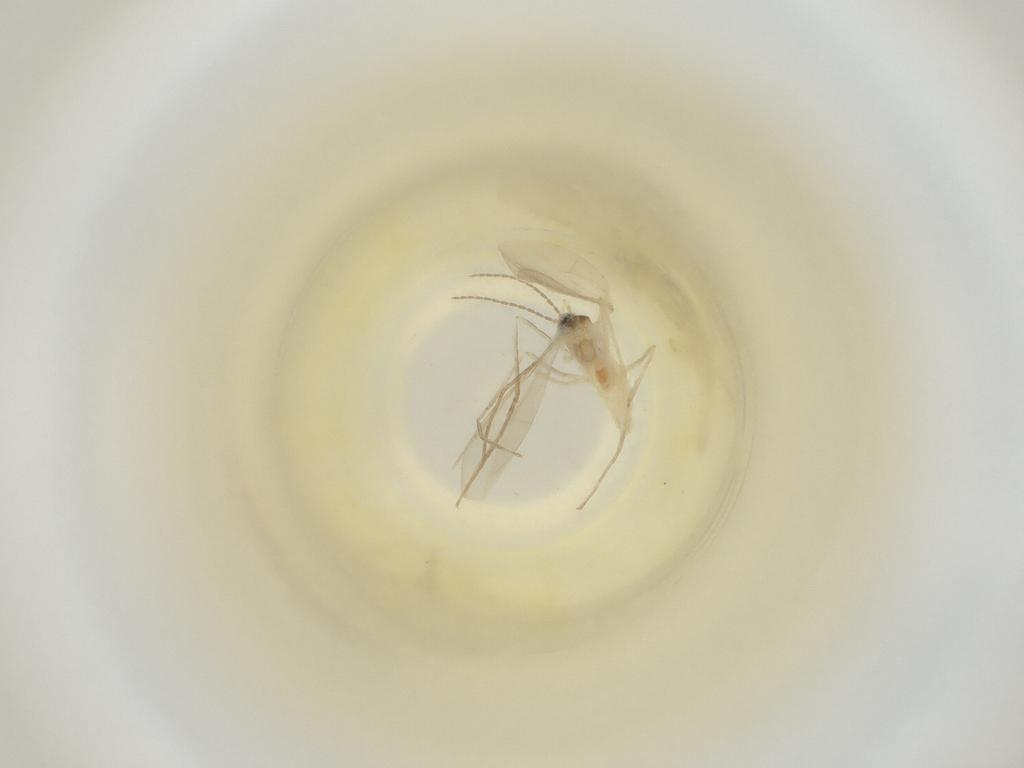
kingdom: Animalia
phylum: Arthropoda
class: Insecta
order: Diptera
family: Cecidomyiidae
